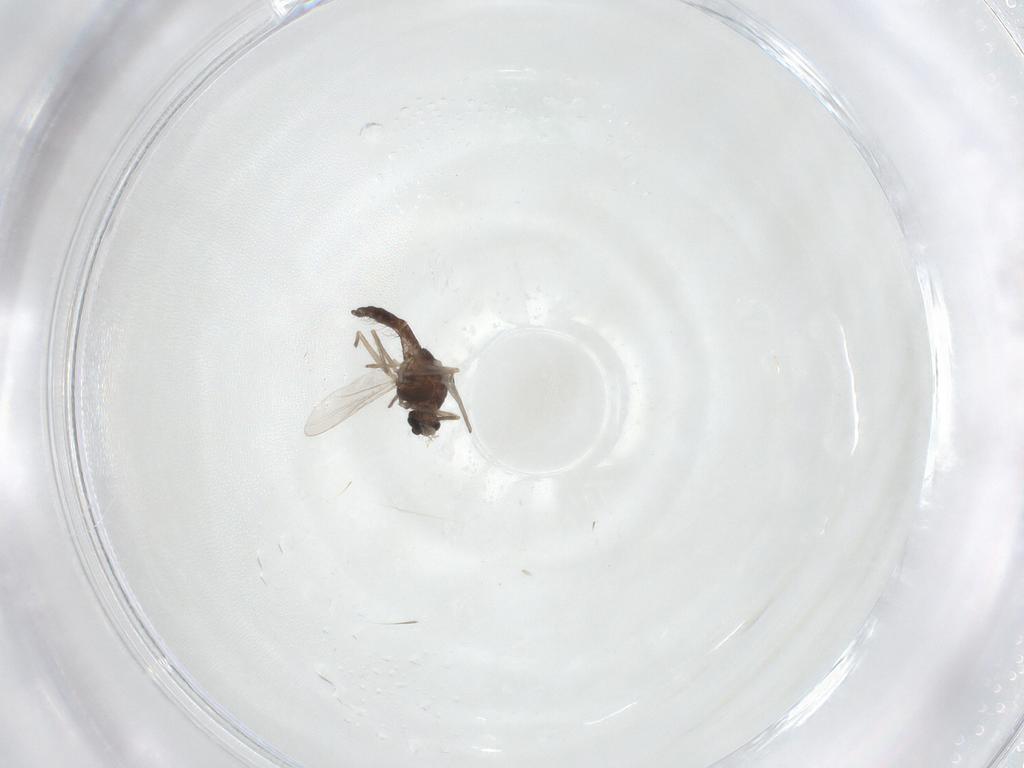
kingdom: Animalia
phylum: Arthropoda
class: Insecta
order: Diptera
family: Chironomidae
